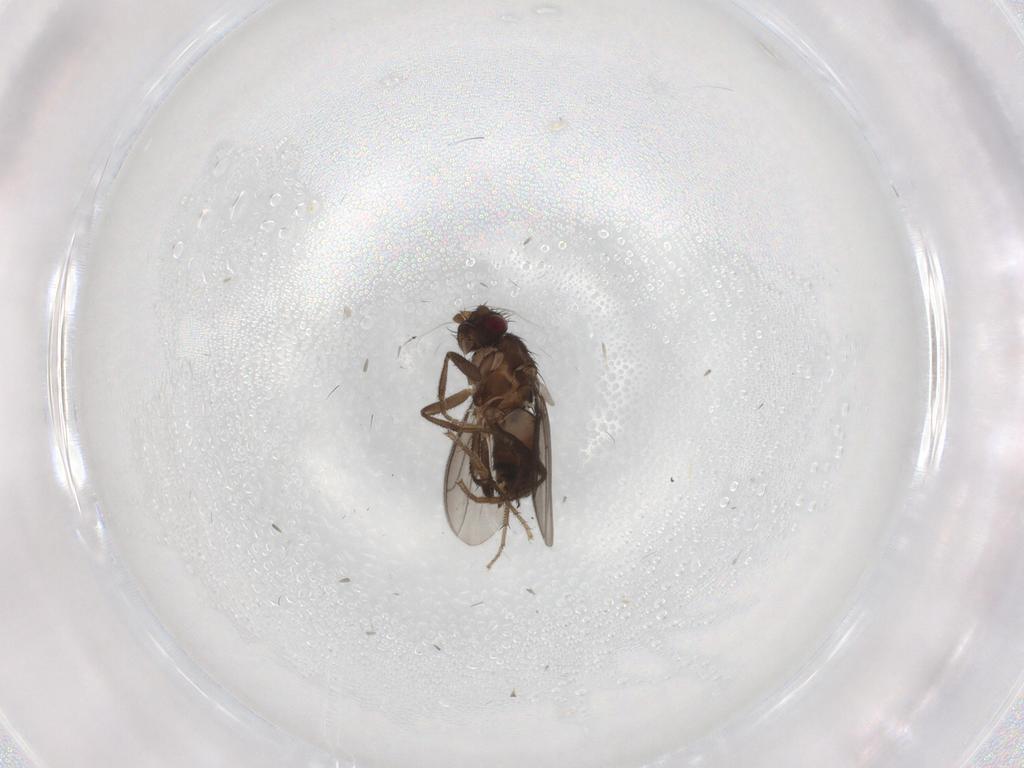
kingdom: Animalia
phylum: Arthropoda
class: Insecta
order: Diptera
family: Sphaeroceridae
